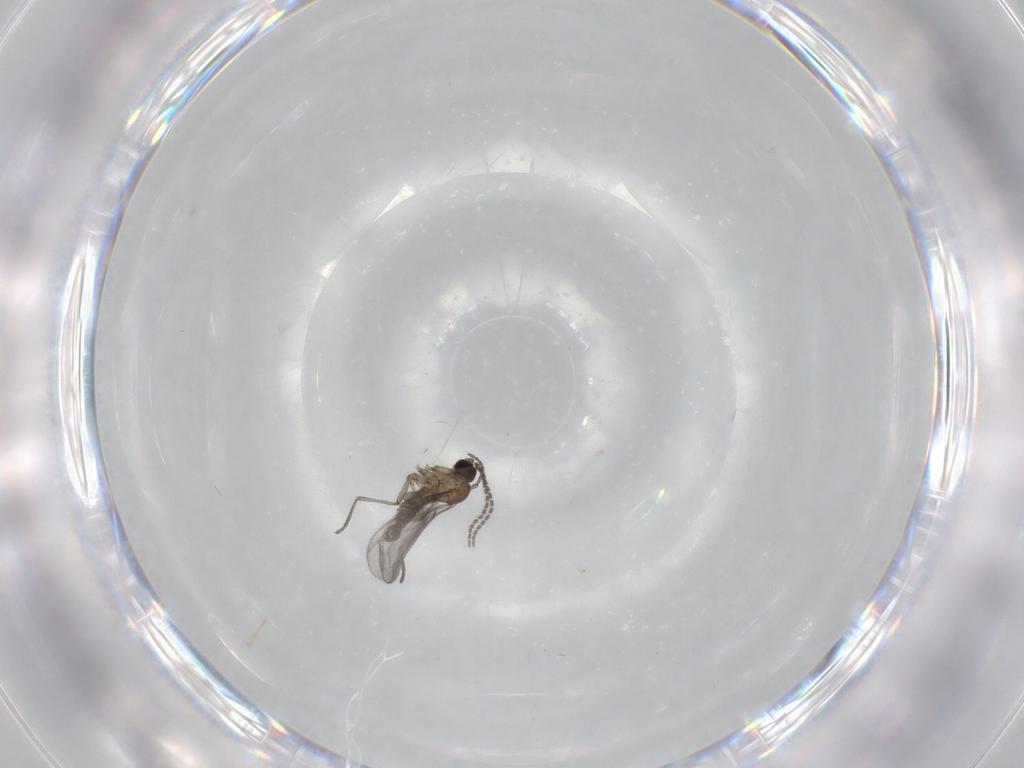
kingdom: Animalia
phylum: Arthropoda
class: Insecta
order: Diptera
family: Sciaridae
